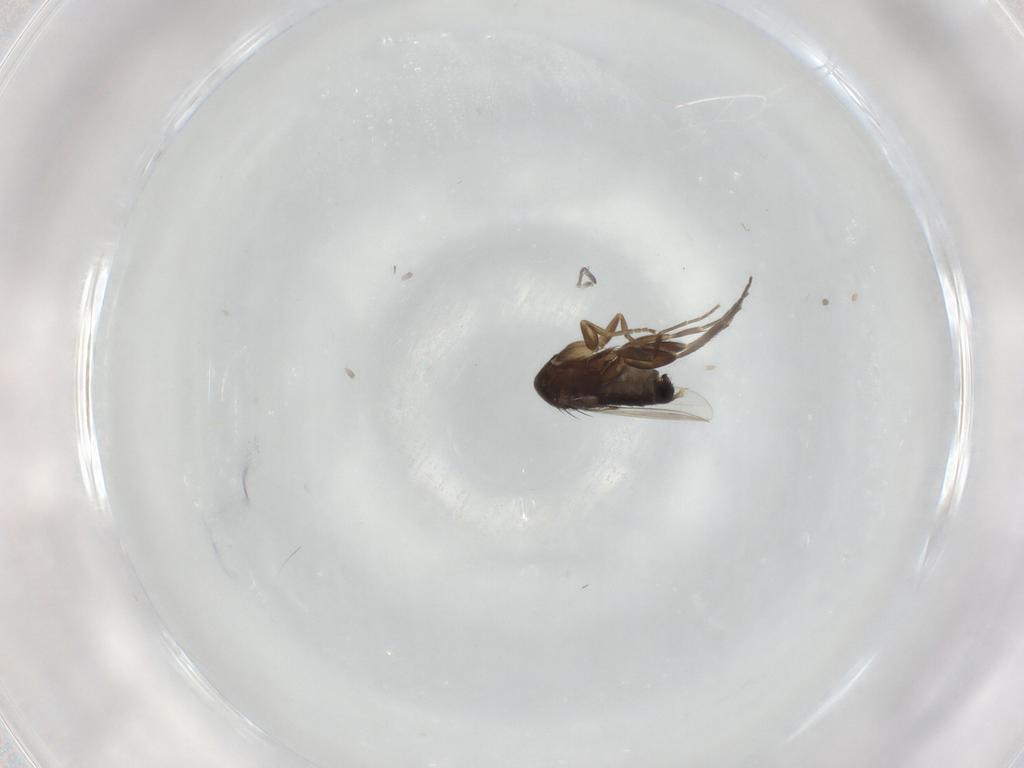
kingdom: Animalia
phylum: Arthropoda
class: Insecta
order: Diptera
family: Phoridae
